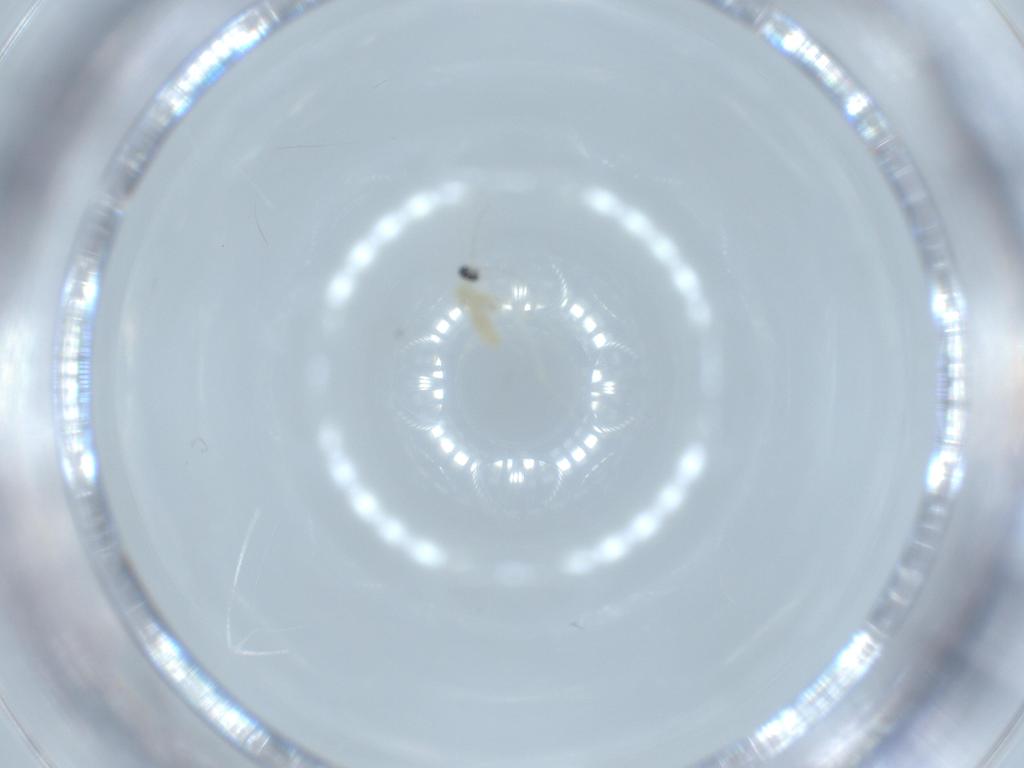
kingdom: Animalia
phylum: Arthropoda
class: Insecta
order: Diptera
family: Cecidomyiidae
